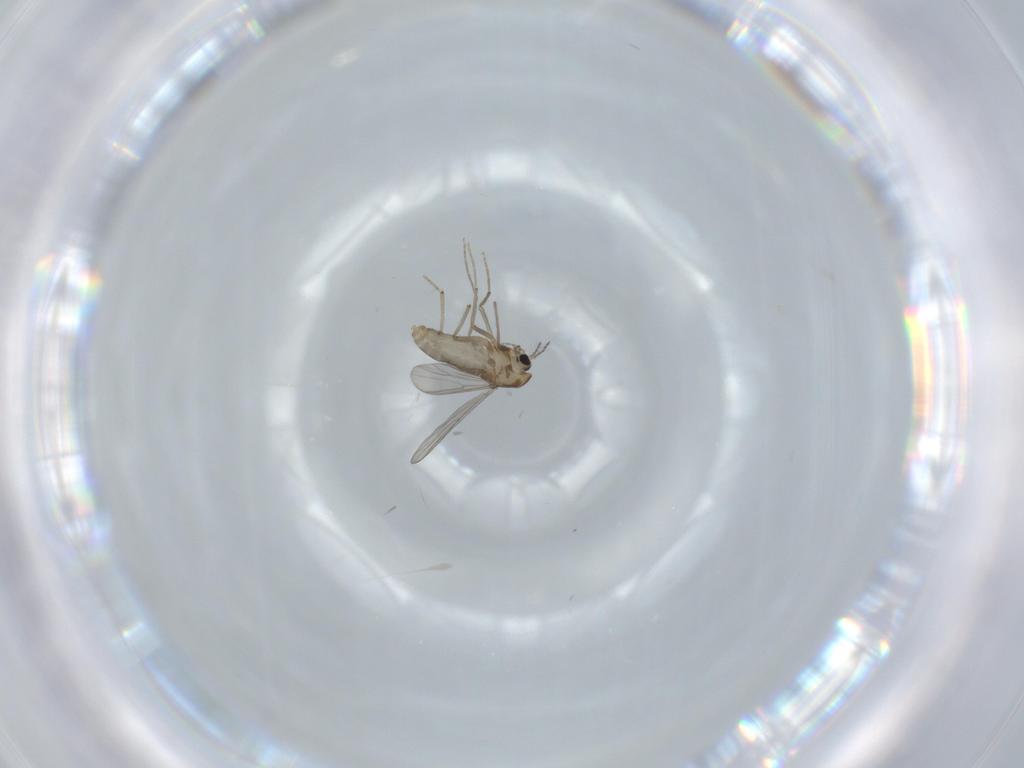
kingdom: Animalia
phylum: Arthropoda
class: Insecta
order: Diptera
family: Chironomidae
